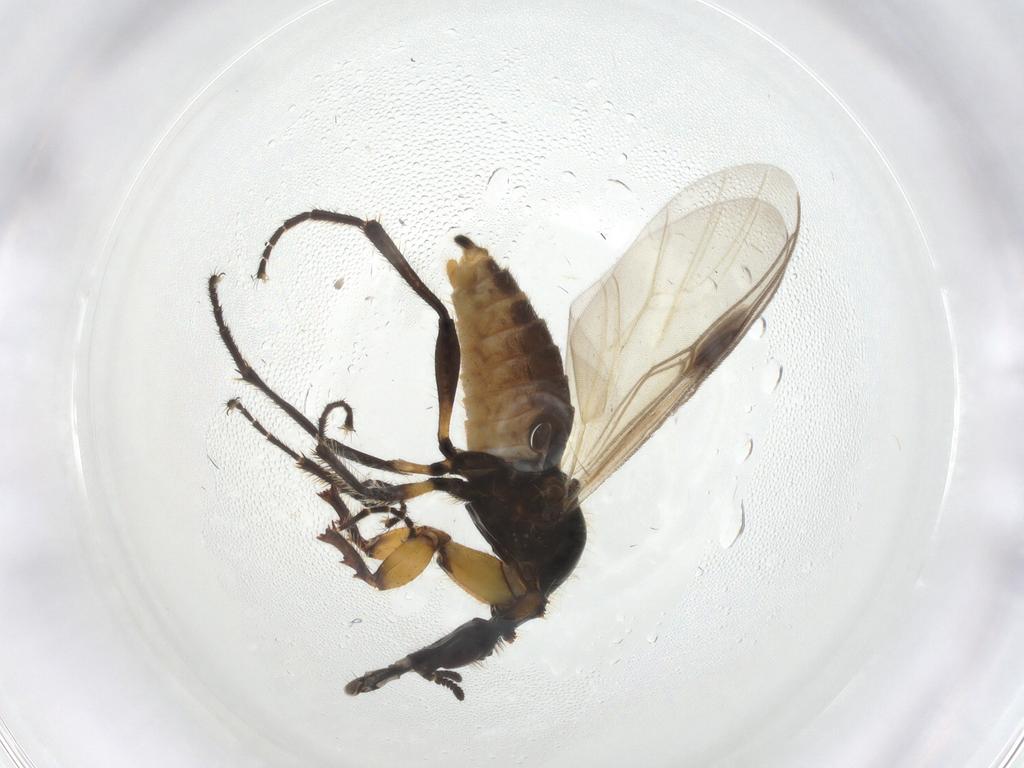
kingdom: Animalia
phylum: Arthropoda
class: Insecta
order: Diptera
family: Bibionidae
